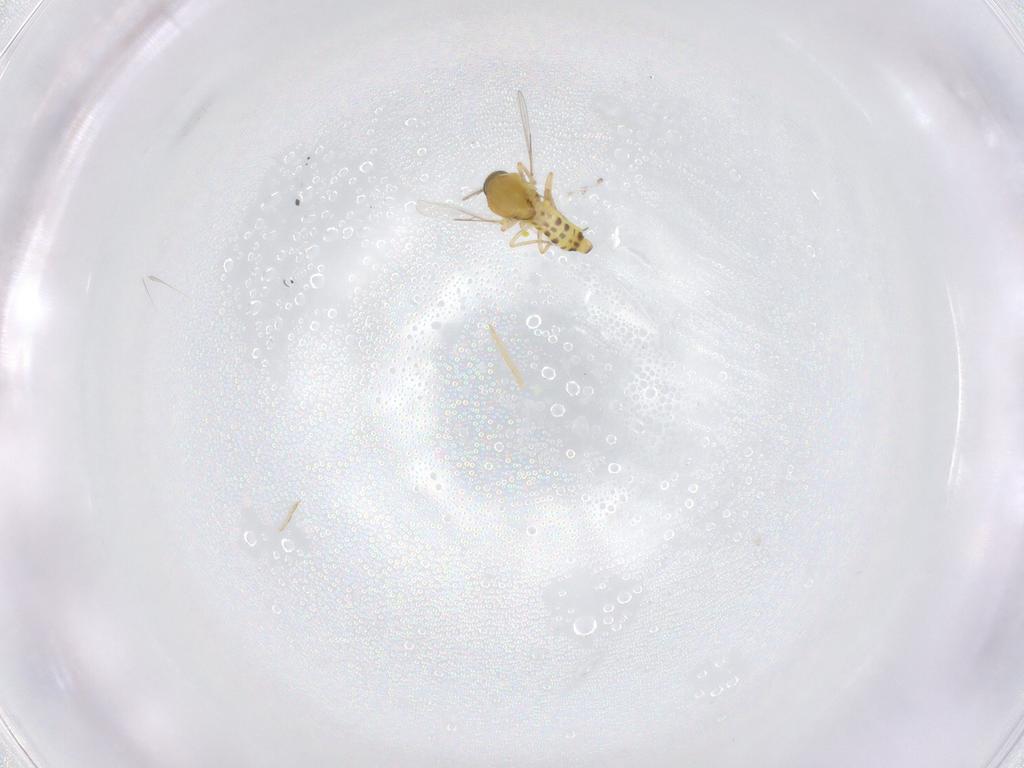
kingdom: Animalia
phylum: Arthropoda
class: Insecta
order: Diptera
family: Ceratopogonidae
